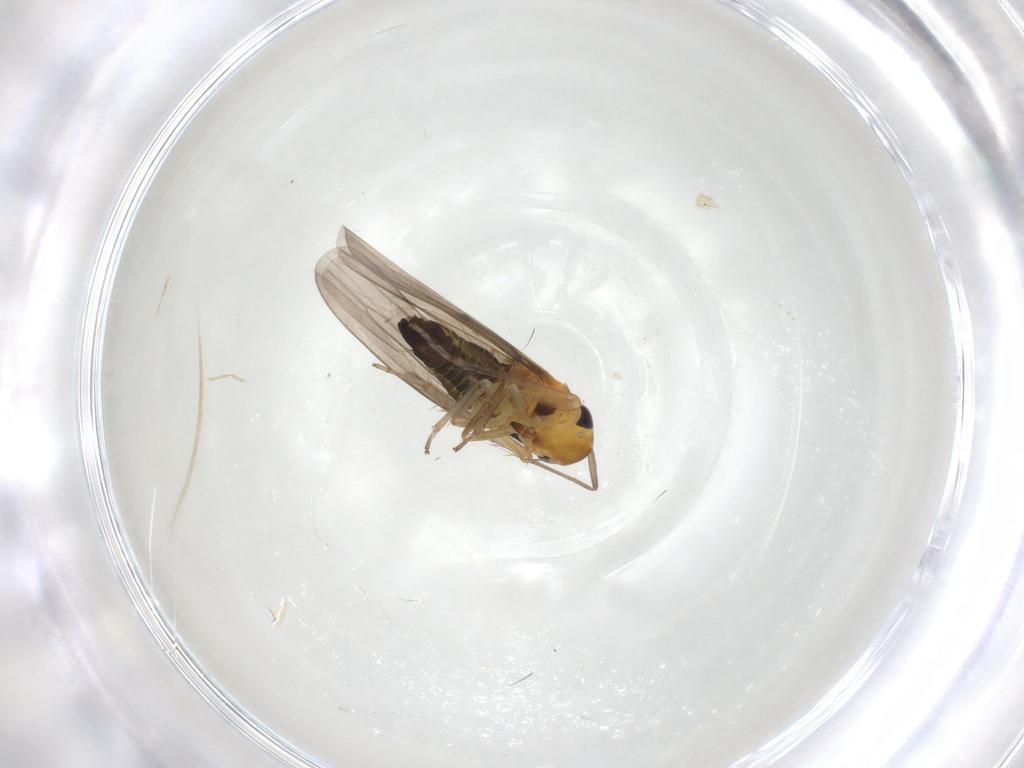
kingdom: Animalia
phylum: Arthropoda
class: Insecta
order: Hemiptera
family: Cicadellidae
